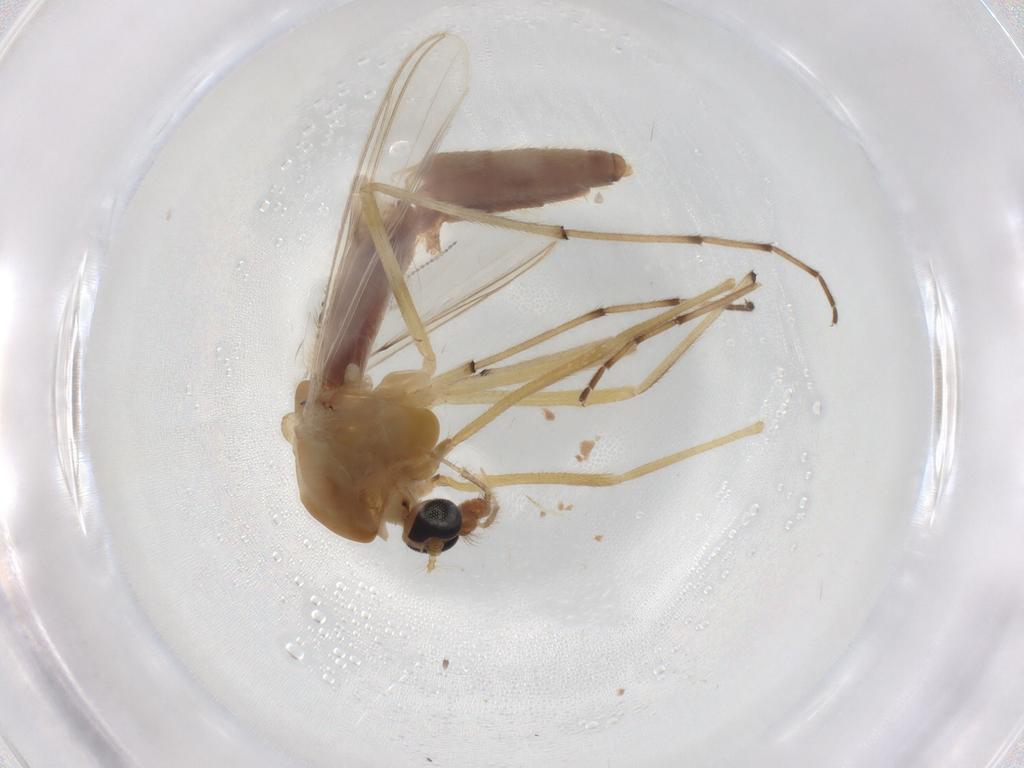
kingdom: Animalia
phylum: Arthropoda
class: Insecta
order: Diptera
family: Chironomidae
